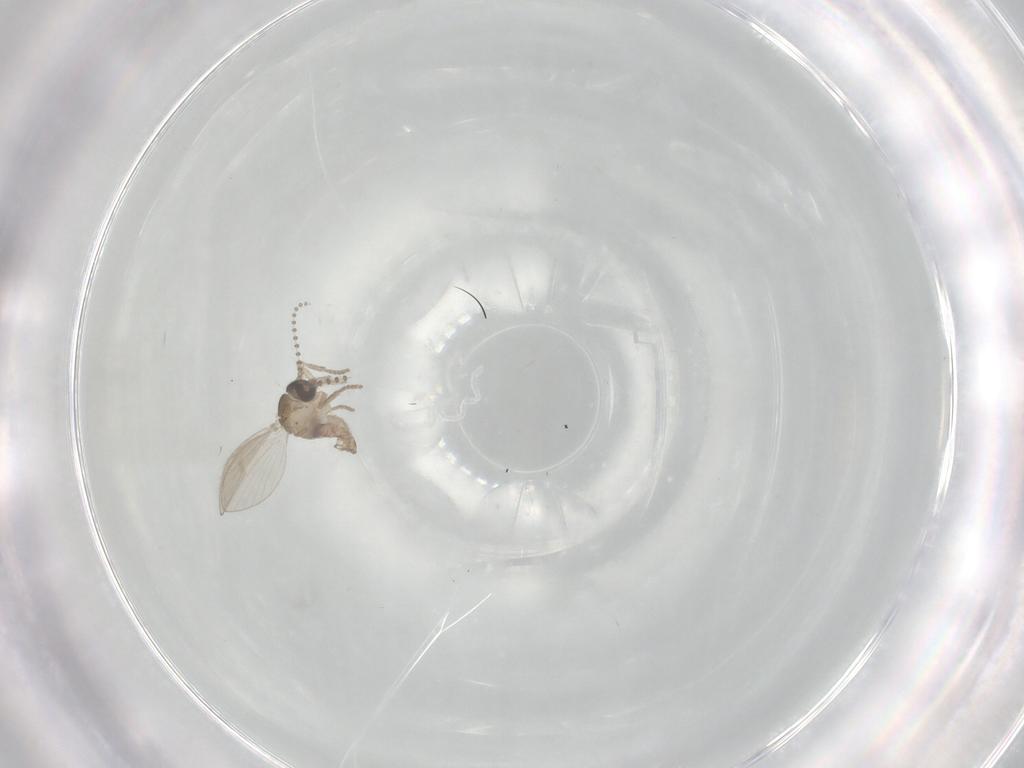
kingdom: Animalia
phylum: Arthropoda
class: Insecta
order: Diptera
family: Psychodidae
